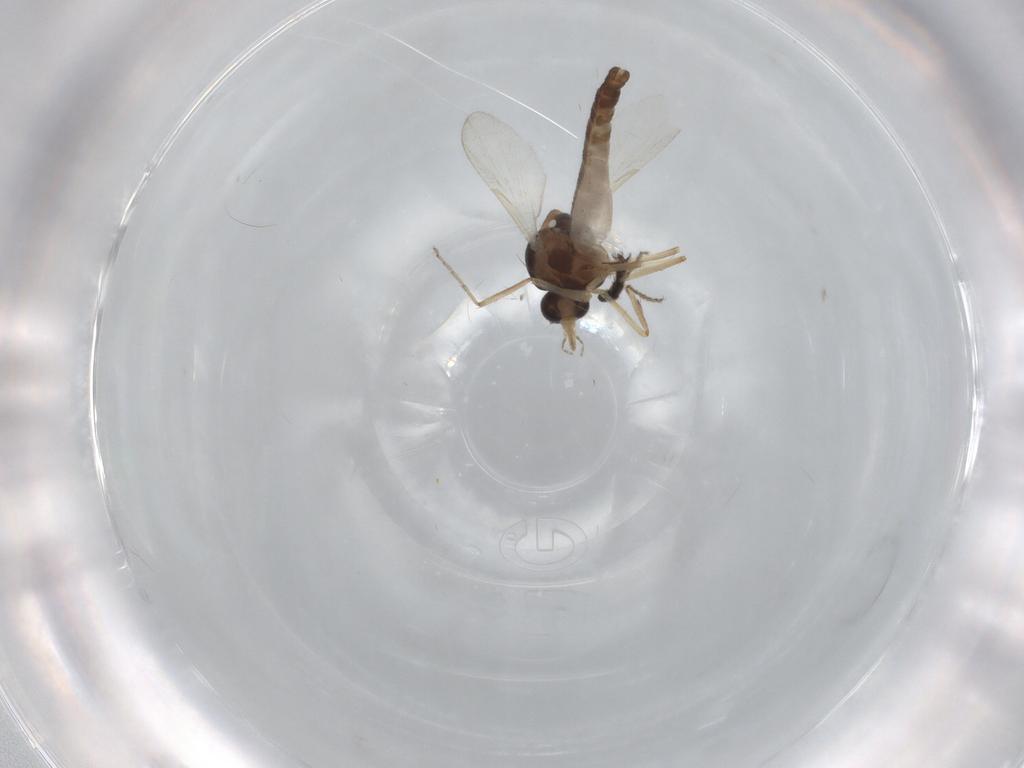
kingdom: Animalia
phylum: Arthropoda
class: Insecta
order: Diptera
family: Ceratopogonidae
